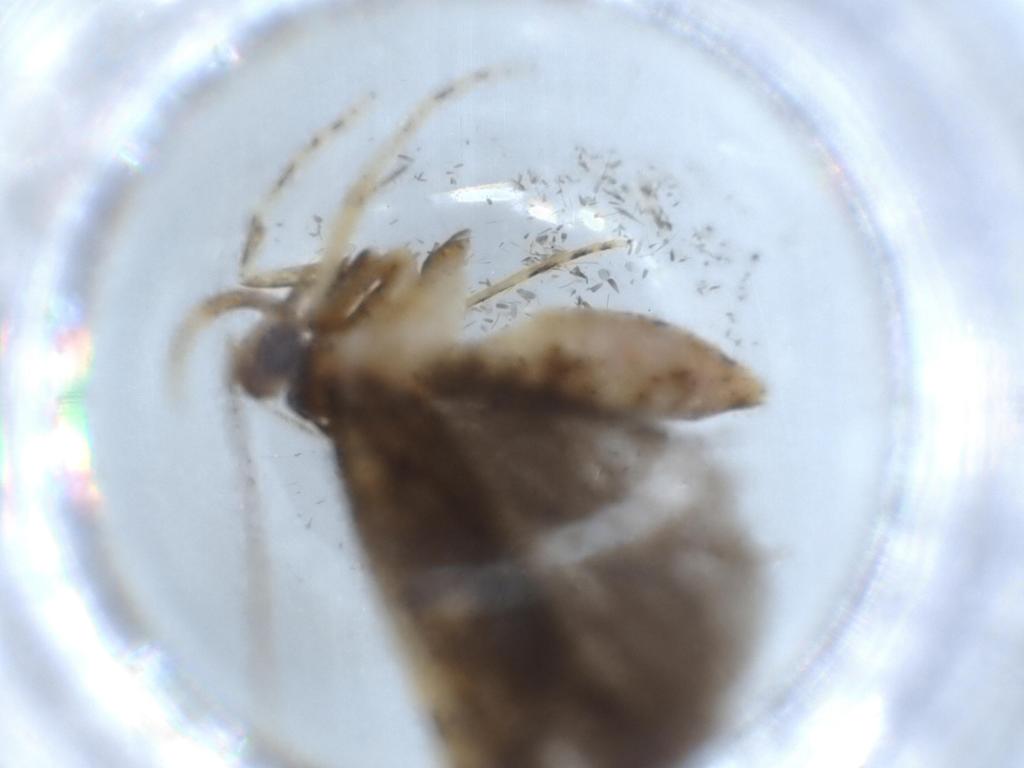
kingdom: Animalia
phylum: Arthropoda
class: Insecta
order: Lepidoptera
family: Autostichidae
